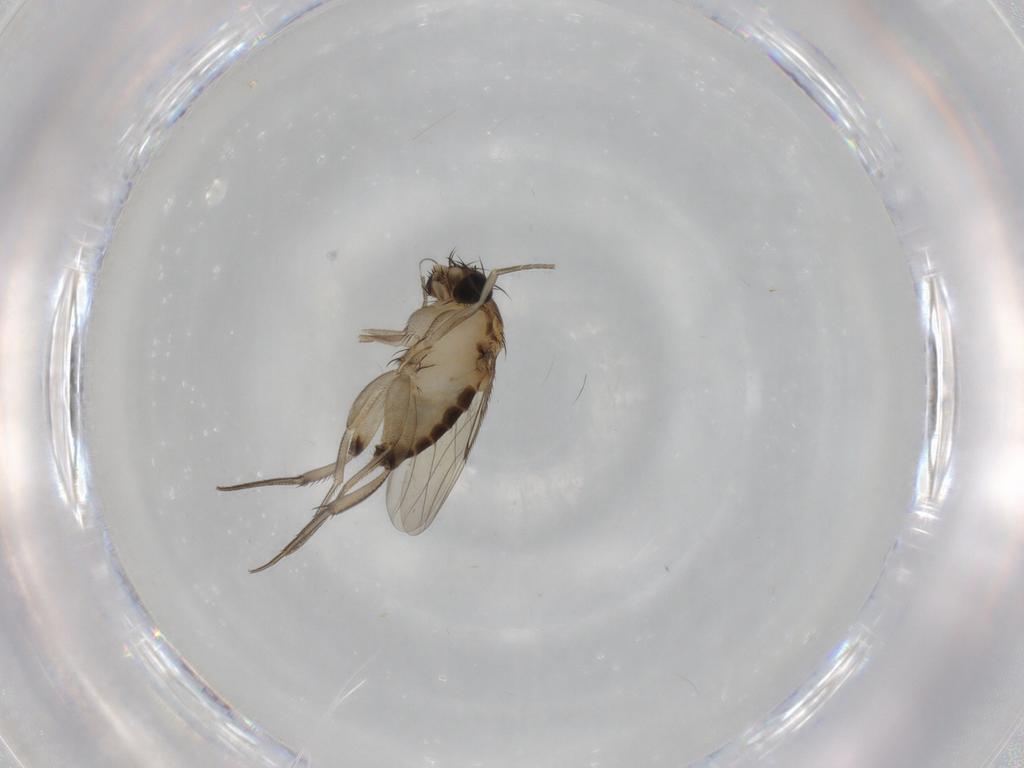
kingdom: Animalia
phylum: Arthropoda
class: Insecta
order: Diptera
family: Phoridae
